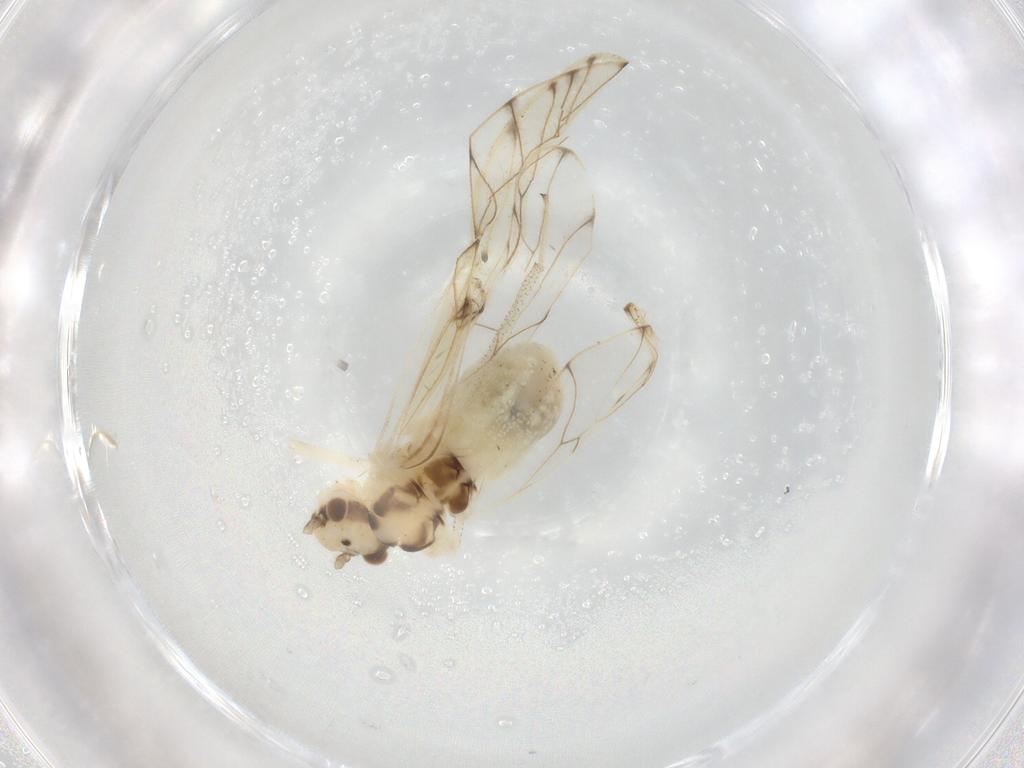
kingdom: Animalia
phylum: Arthropoda
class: Insecta
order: Psocodea
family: Philotarsidae
